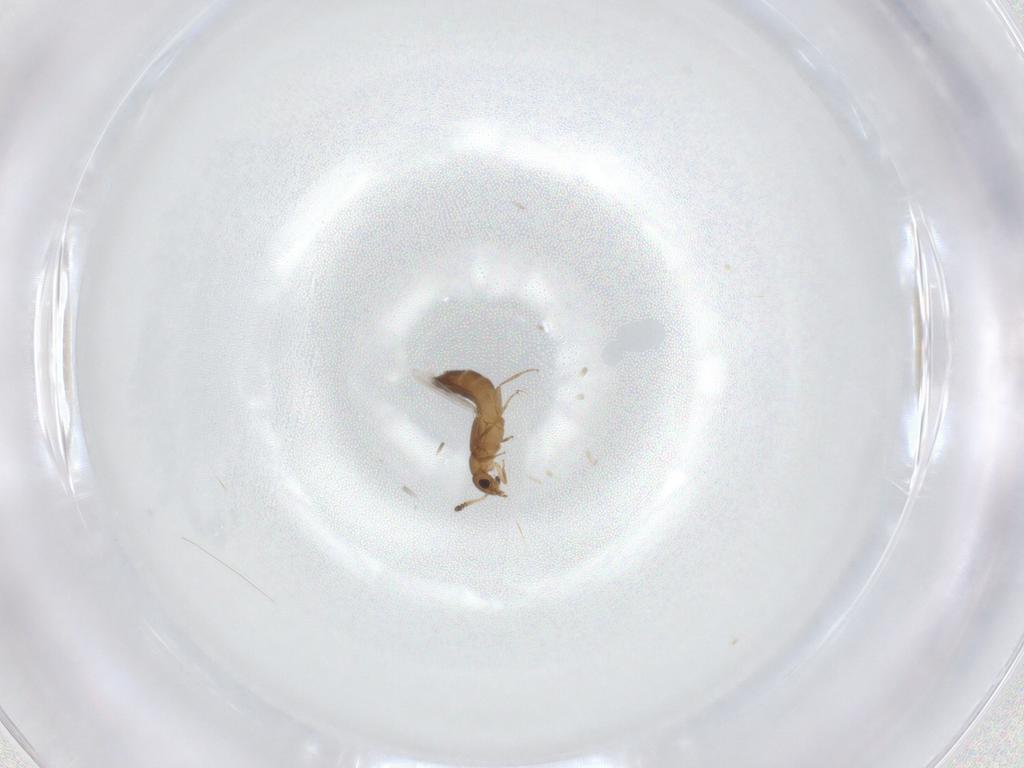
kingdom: Animalia
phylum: Arthropoda
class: Insecta
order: Coleoptera
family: Staphylinidae
